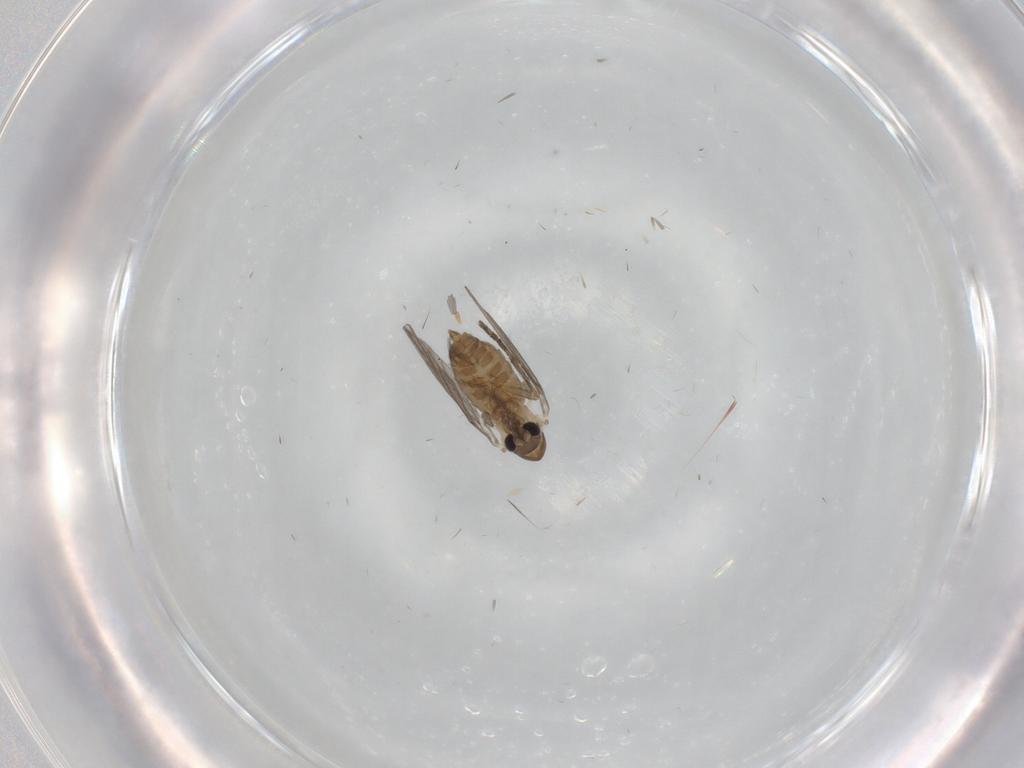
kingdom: Animalia
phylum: Arthropoda
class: Insecta
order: Diptera
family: Ceratopogonidae
